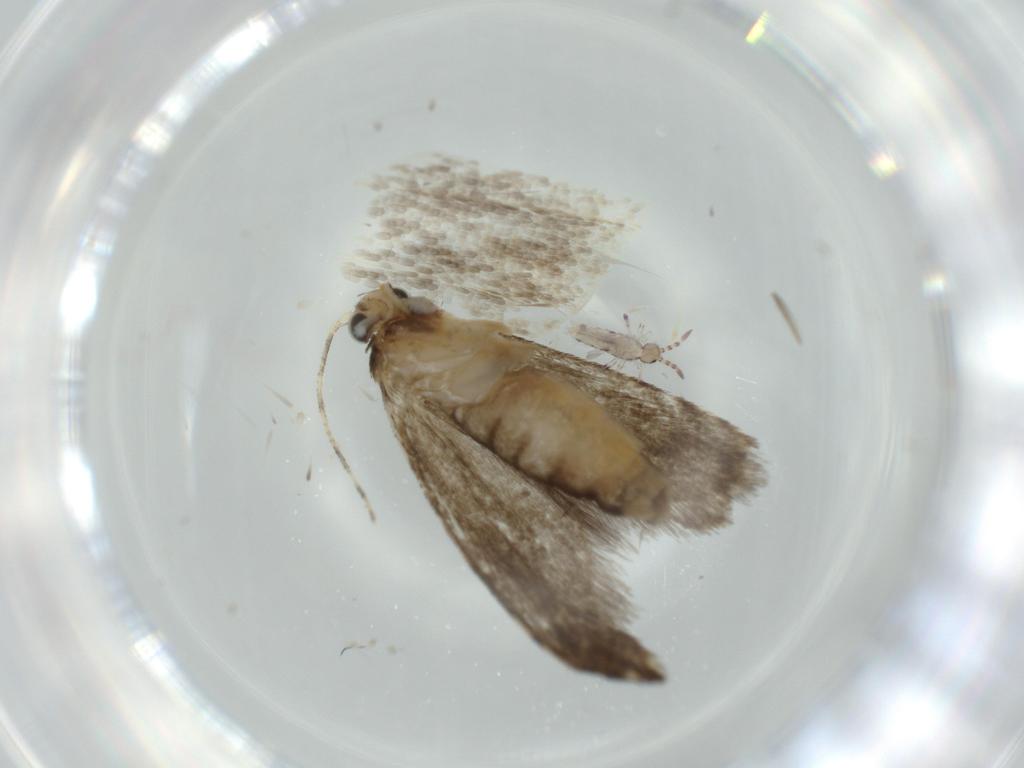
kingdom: Animalia
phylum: Arthropoda
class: Insecta
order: Lepidoptera
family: Tineidae
